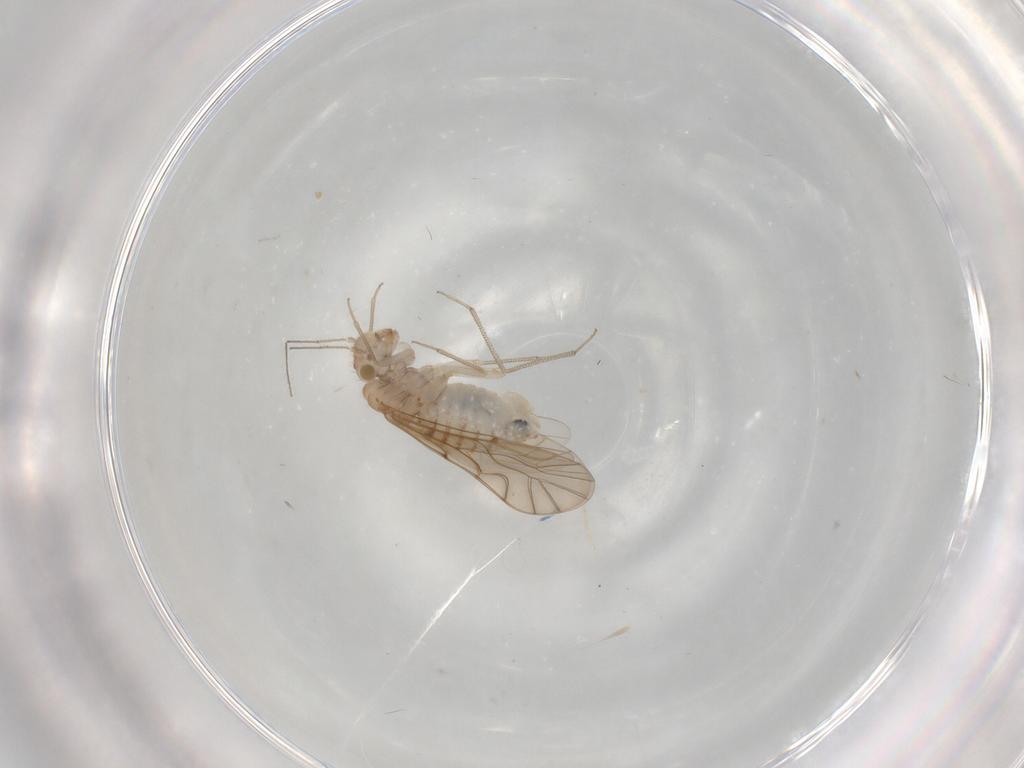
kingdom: Animalia
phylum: Arthropoda
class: Insecta
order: Psocodea
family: Lachesillidae
